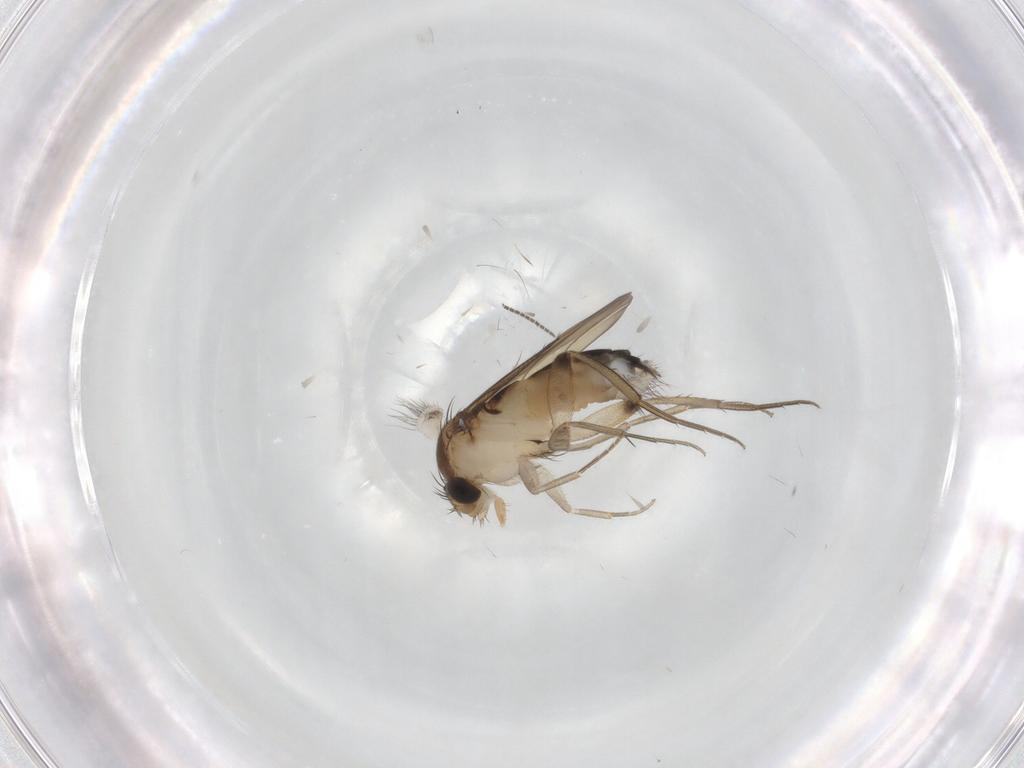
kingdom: Animalia
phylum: Arthropoda
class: Insecta
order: Diptera
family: Phoridae
